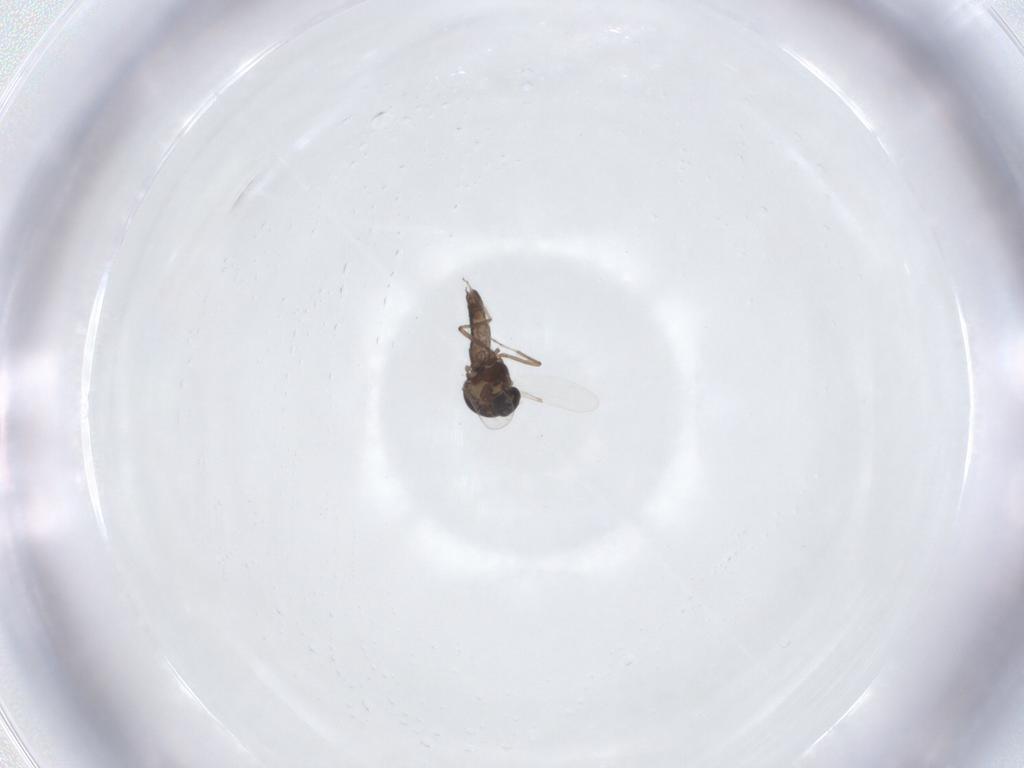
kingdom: Animalia
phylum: Arthropoda
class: Insecta
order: Diptera
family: Ceratopogonidae
